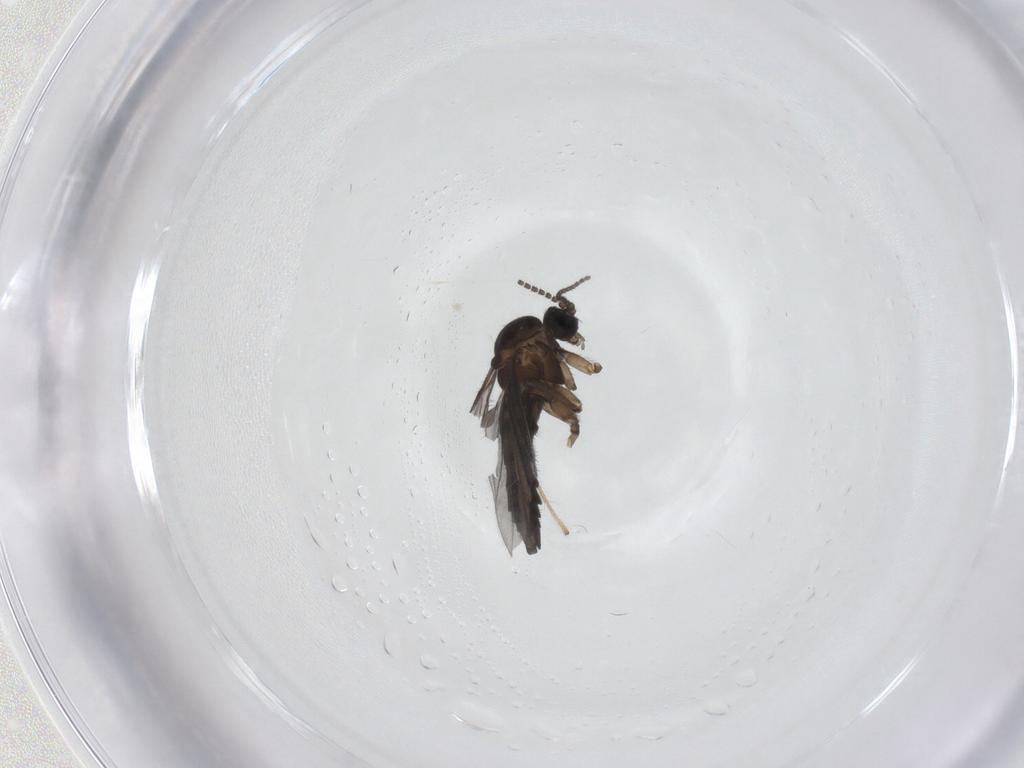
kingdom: Animalia
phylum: Arthropoda
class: Insecta
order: Diptera
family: Sciaridae
